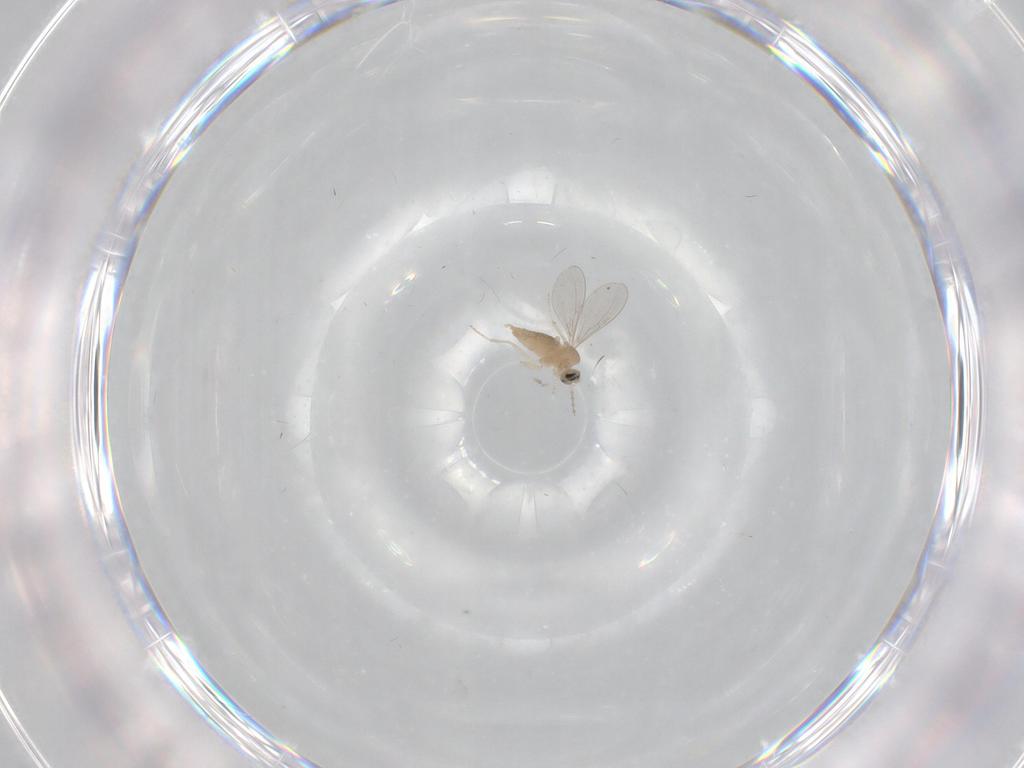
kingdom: Animalia
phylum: Arthropoda
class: Insecta
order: Diptera
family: Cecidomyiidae
